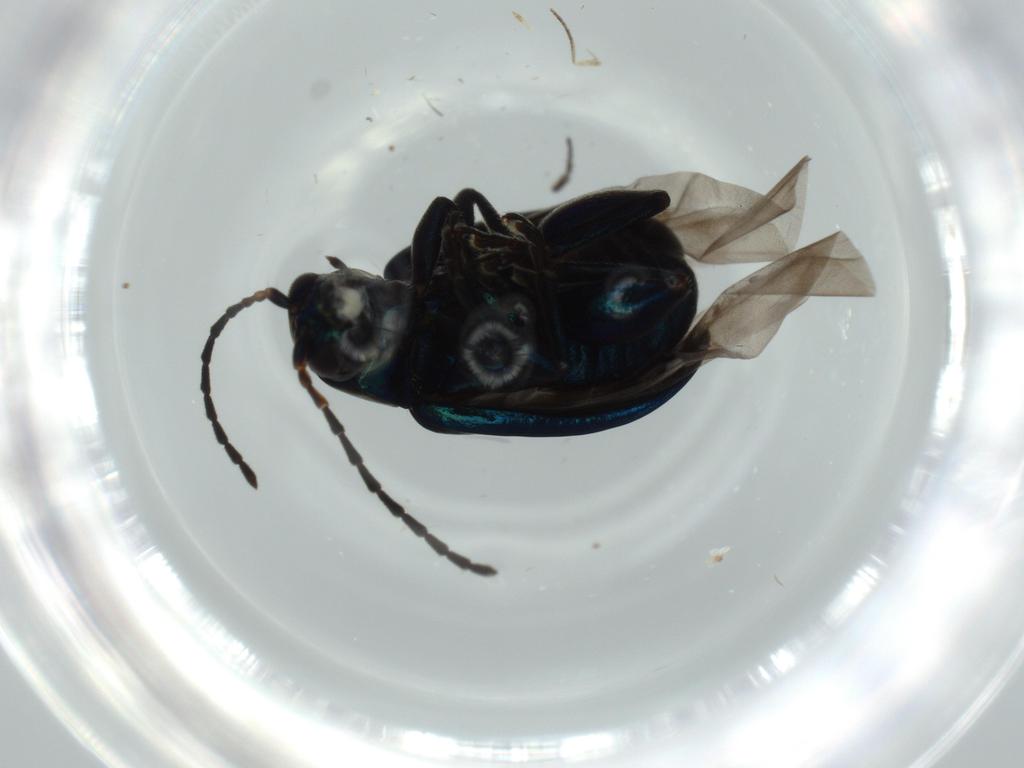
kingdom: Animalia
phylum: Arthropoda
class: Insecta
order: Coleoptera
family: Chrysomelidae
